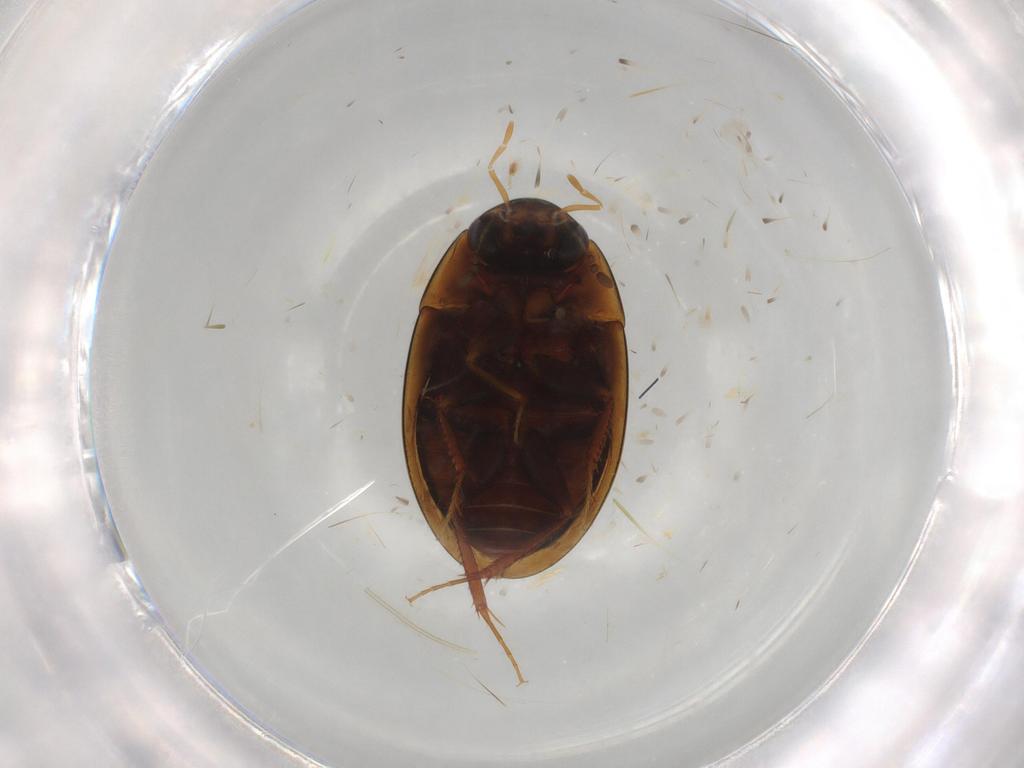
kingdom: Animalia
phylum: Arthropoda
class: Insecta
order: Coleoptera
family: Hydrophilidae
